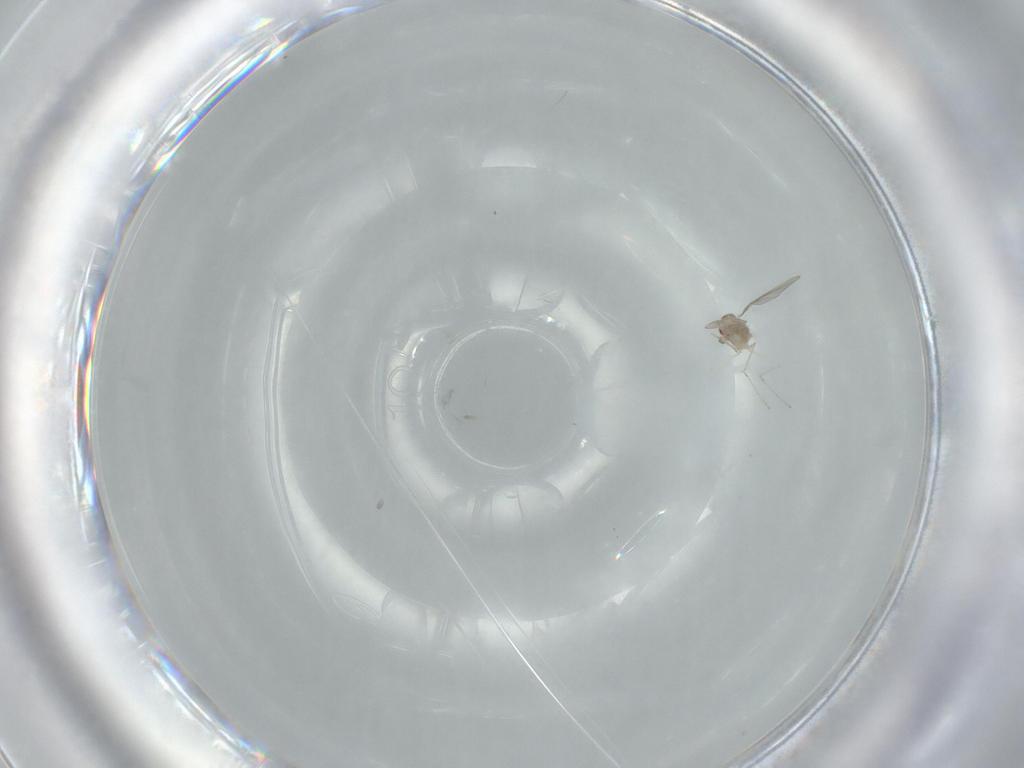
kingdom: Animalia
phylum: Arthropoda
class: Insecta
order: Diptera
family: Cecidomyiidae
